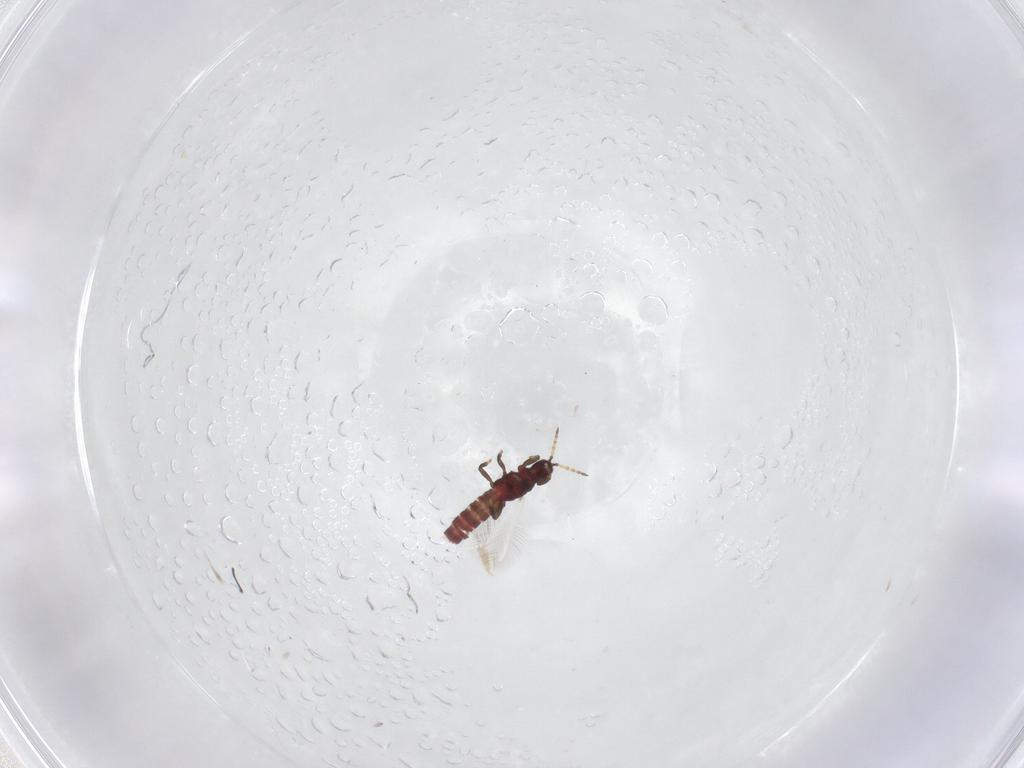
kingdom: Animalia
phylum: Arthropoda
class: Insecta
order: Thysanoptera
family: Phlaeothripidae
